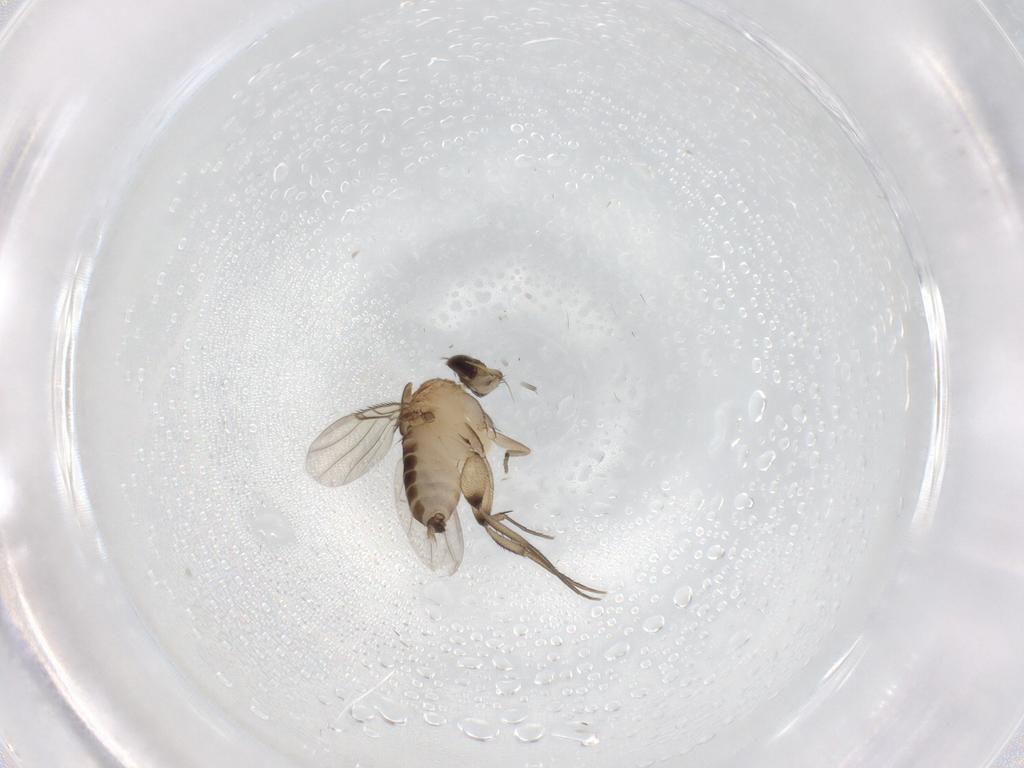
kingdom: Animalia
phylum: Arthropoda
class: Insecta
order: Diptera
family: Phoridae
